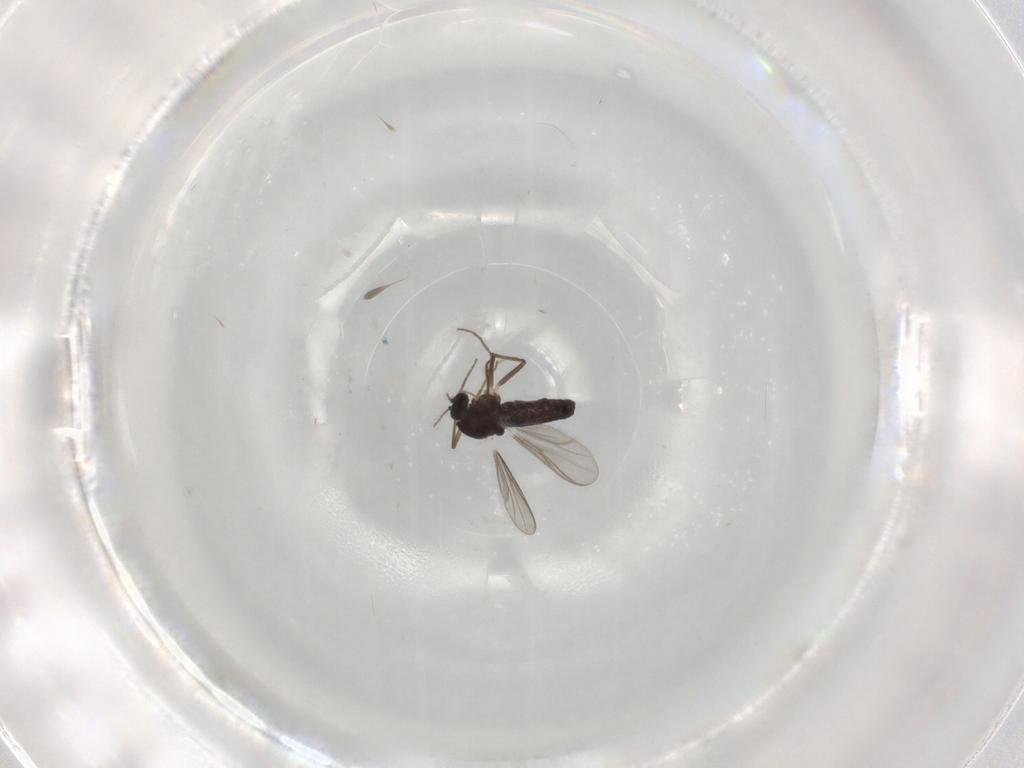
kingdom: Animalia
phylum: Arthropoda
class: Insecta
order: Diptera
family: Chironomidae
